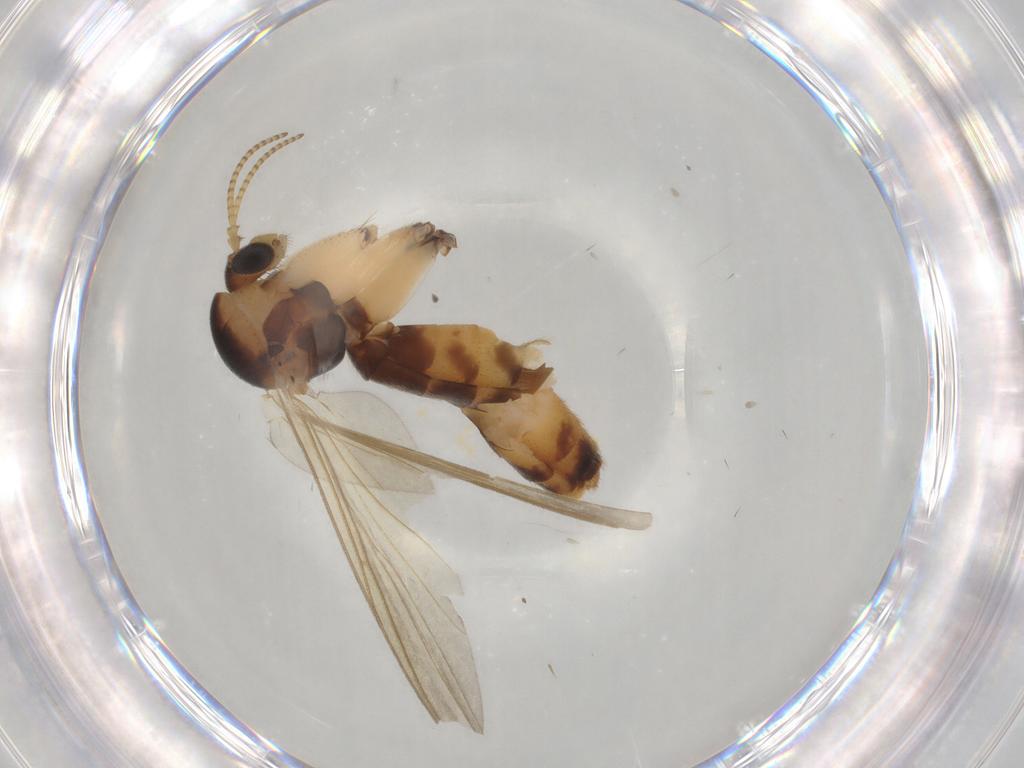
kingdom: Animalia
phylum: Arthropoda
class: Insecta
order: Diptera
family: Mycetophilidae
